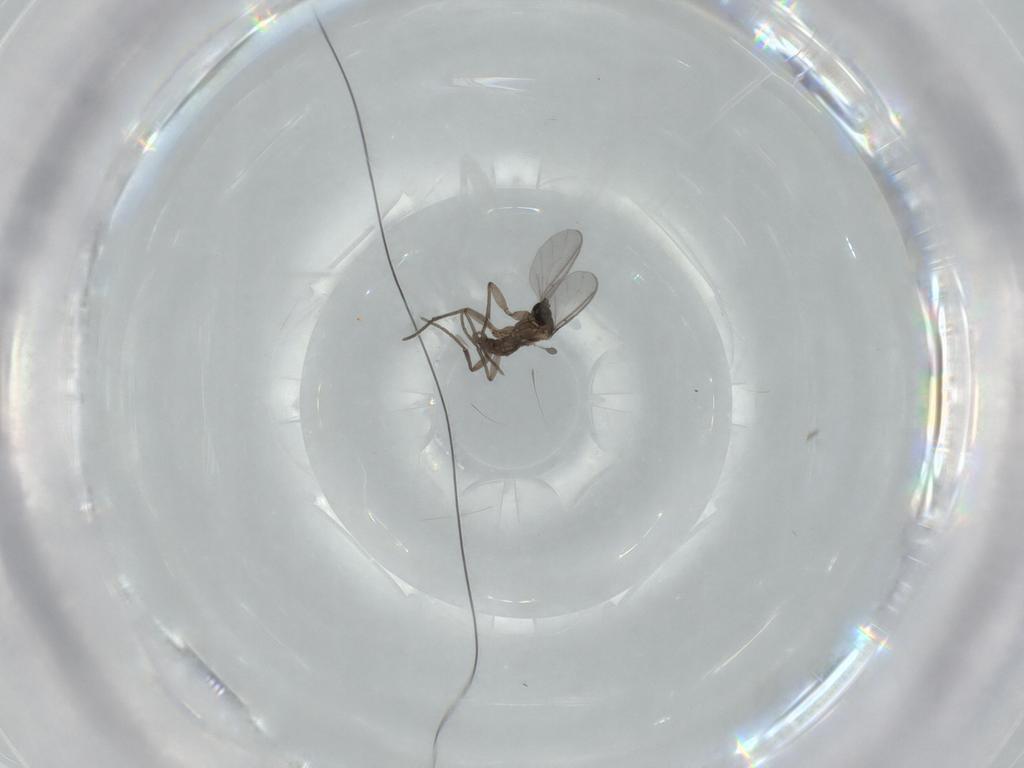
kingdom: Animalia
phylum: Arthropoda
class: Insecta
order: Diptera
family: Sciaridae
